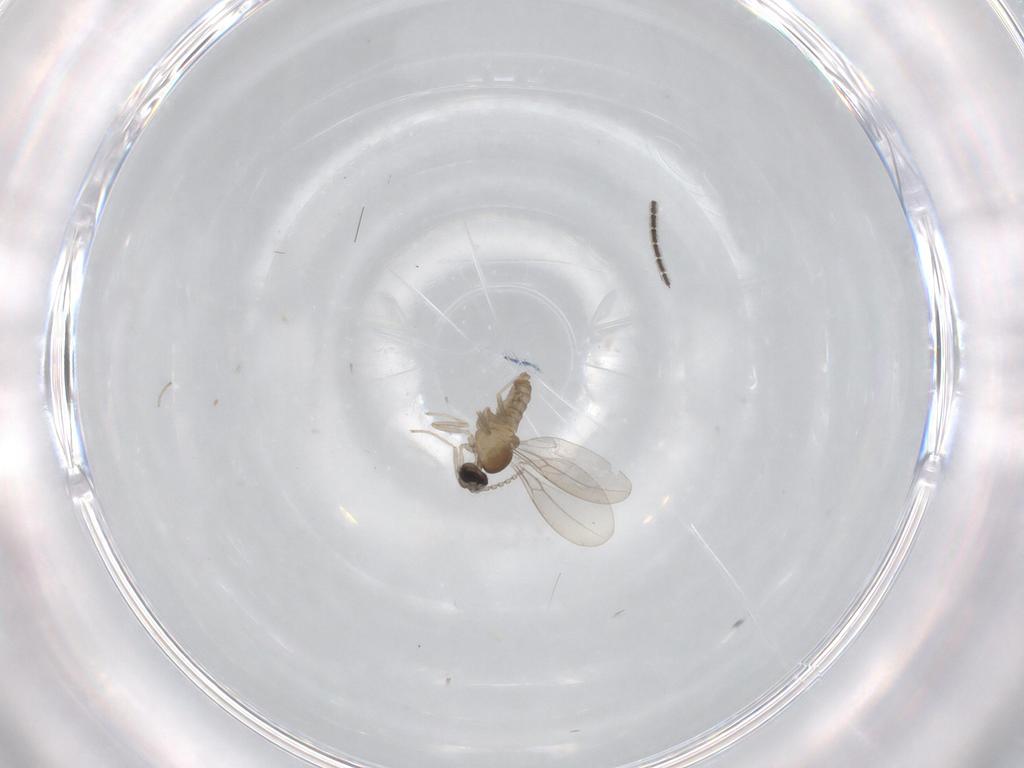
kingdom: Animalia
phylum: Arthropoda
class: Insecta
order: Diptera
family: Cecidomyiidae
